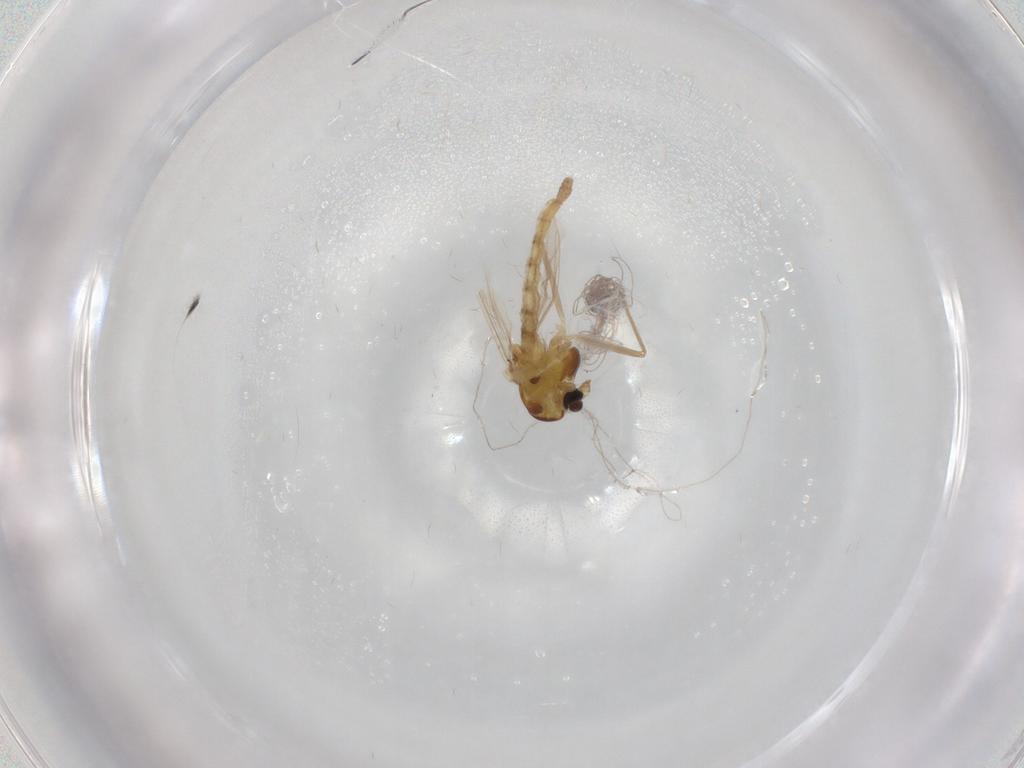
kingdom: Animalia
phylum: Arthropoda
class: Insecta
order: Diptera
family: Chironomidae
